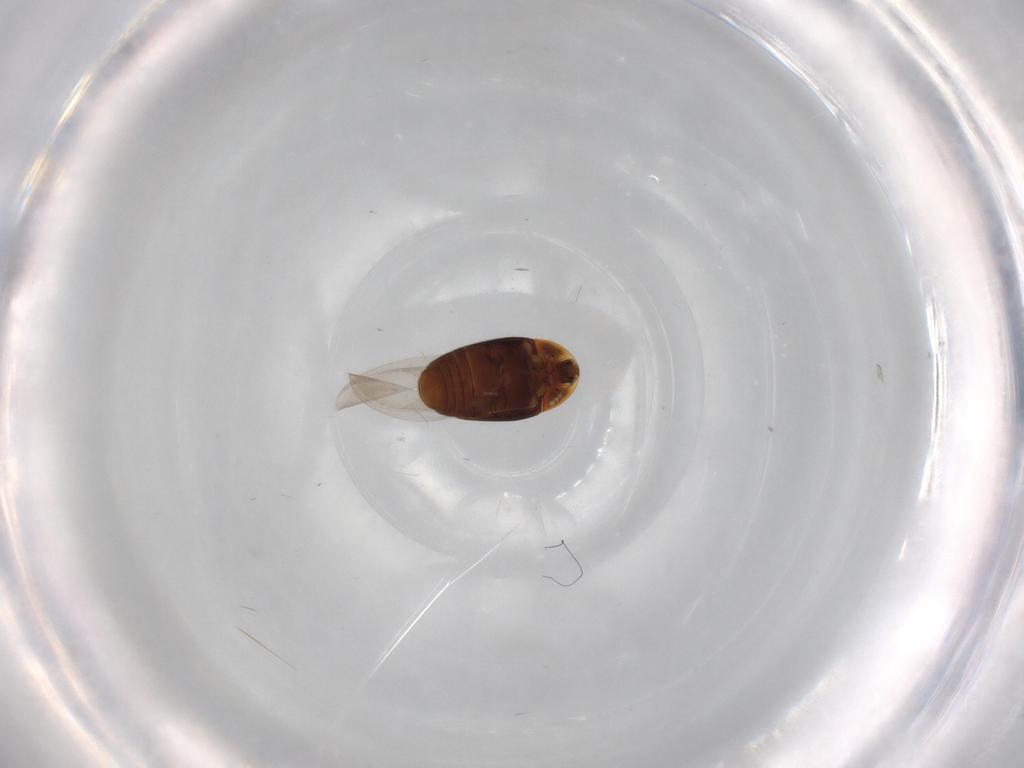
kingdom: Animalia
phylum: Arthropoda
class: Insecta
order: Coleoptera
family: Corylophidae
